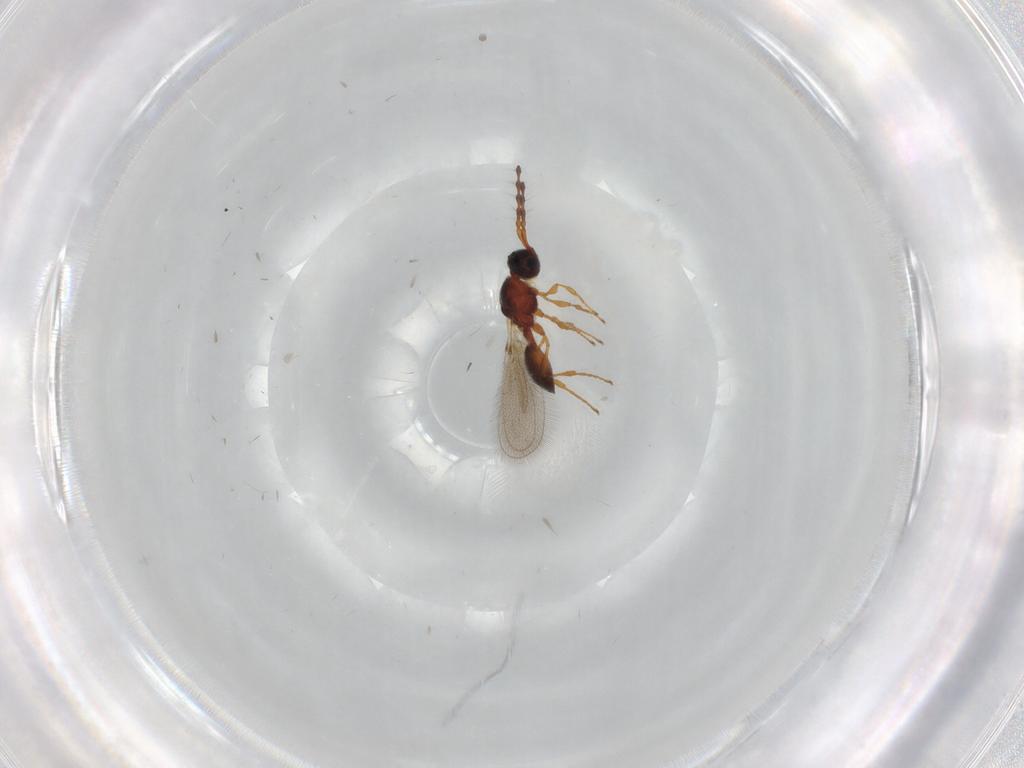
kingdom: Animalia
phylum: Arthropoda
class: Insecta
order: Hymenoptera
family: Diapriidae
